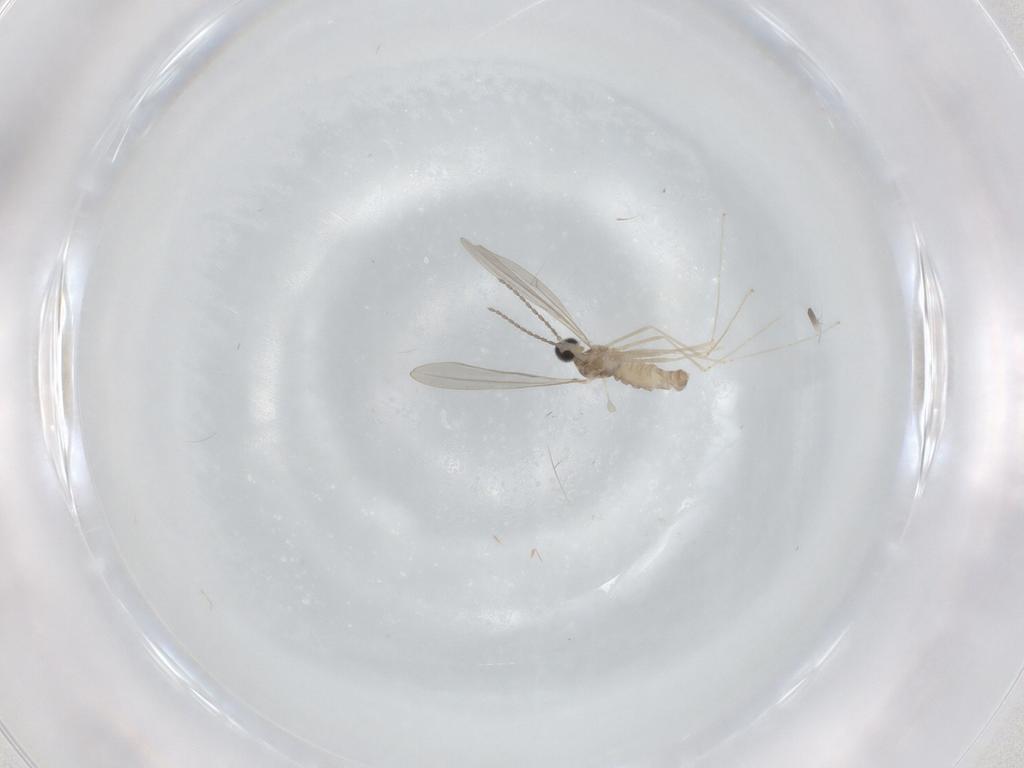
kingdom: Animalia
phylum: Arthropoda
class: Insecta
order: Diptera
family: Sciaridae
